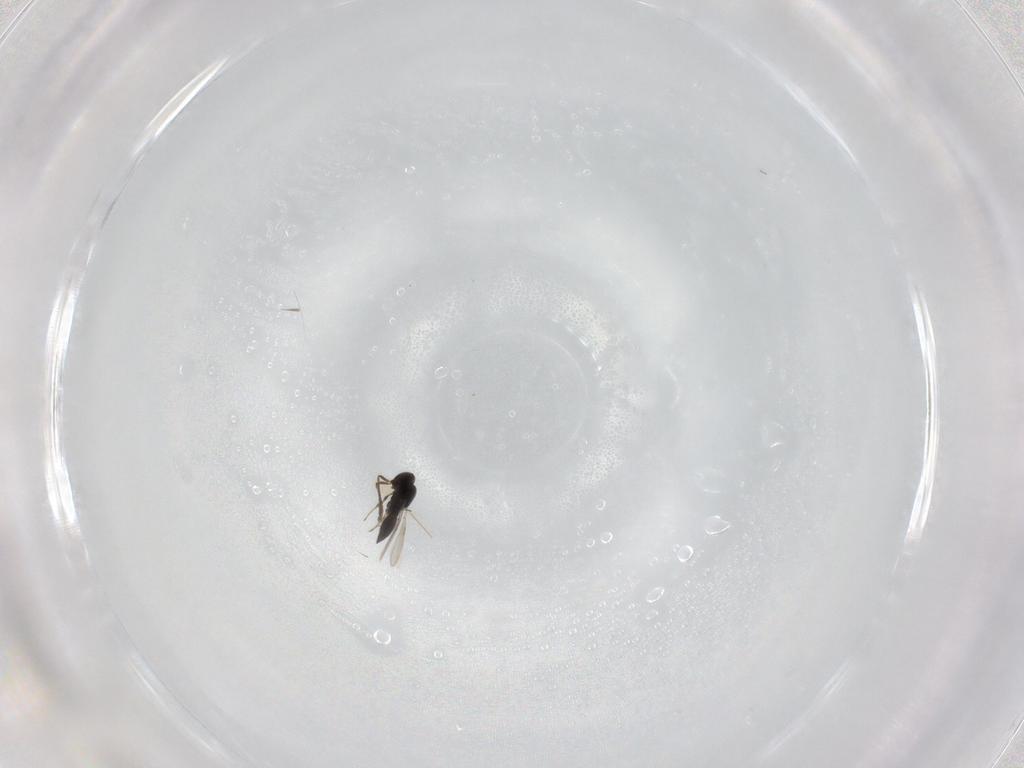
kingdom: Animalia
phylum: Arthropoda
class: Insecta
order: Hymenoptera
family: Scelionidae
